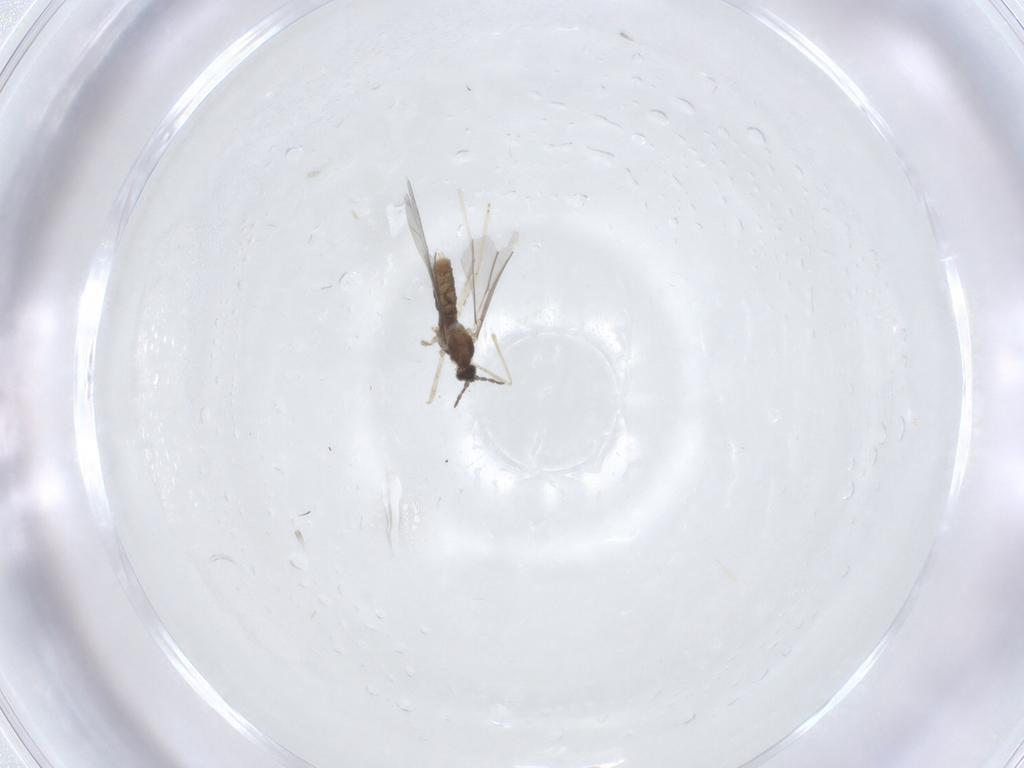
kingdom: Animalia
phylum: Arthropoda
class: Insecta
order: Diptera
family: Cecidomyiidae
